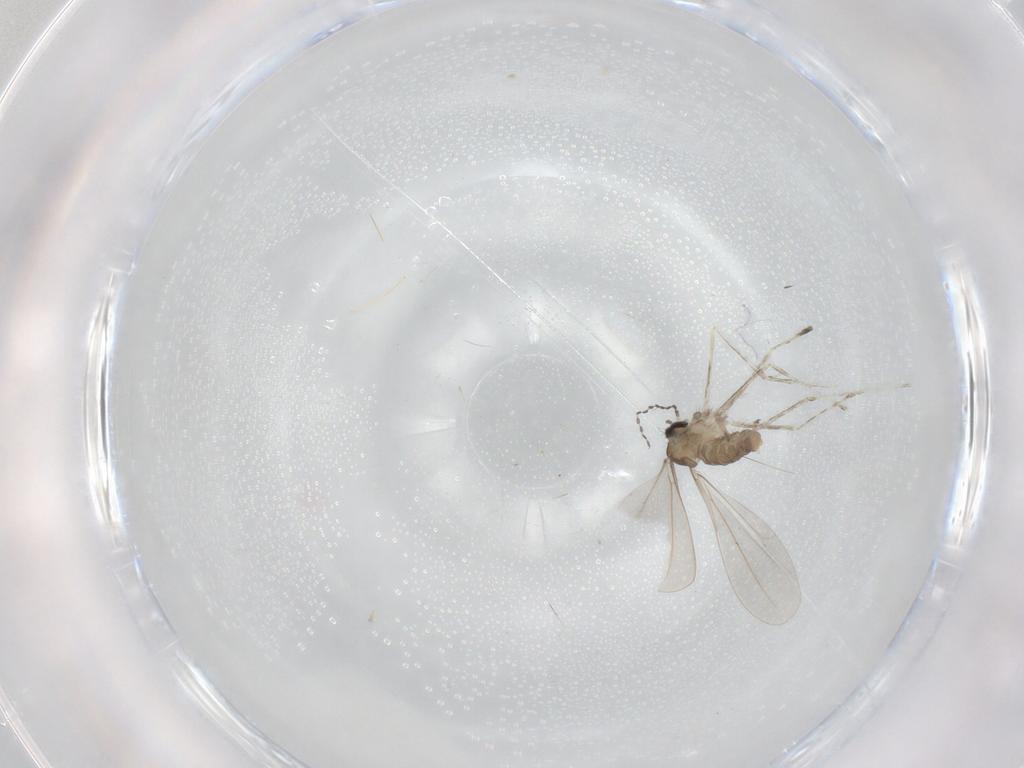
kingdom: Animalia
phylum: Arthropoda
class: Insecta
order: Diptera
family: Cecidomyiidae
